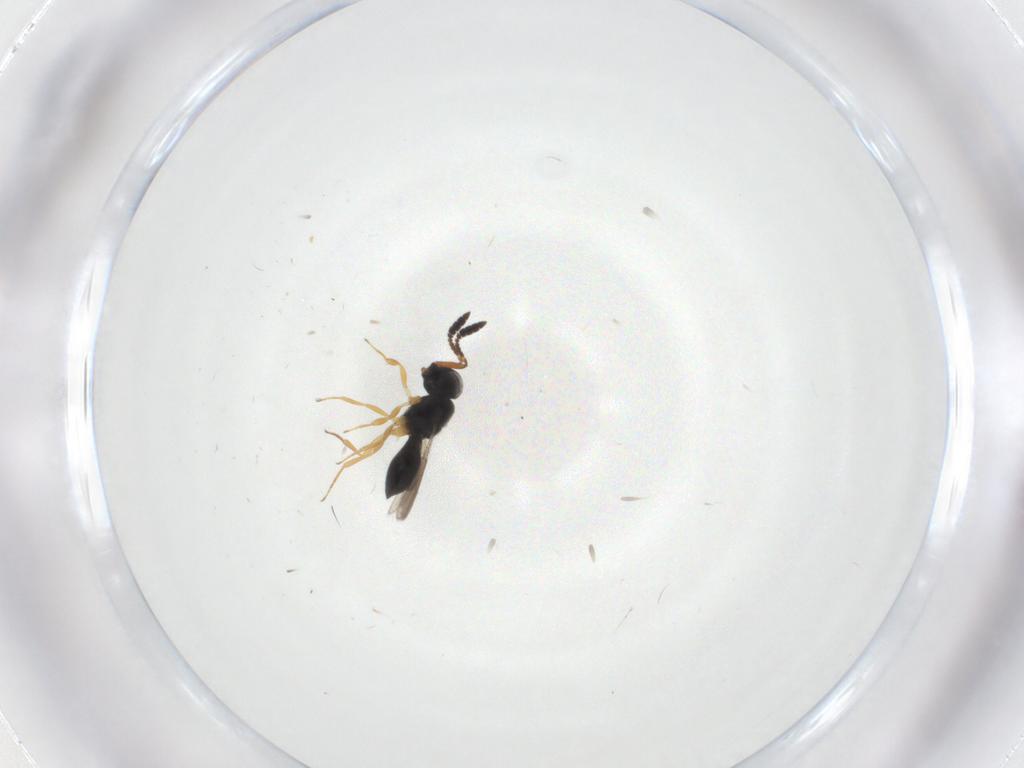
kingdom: Animalia
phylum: Arthropoda
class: Insecta
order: Hymenoptera
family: Scelionidae
